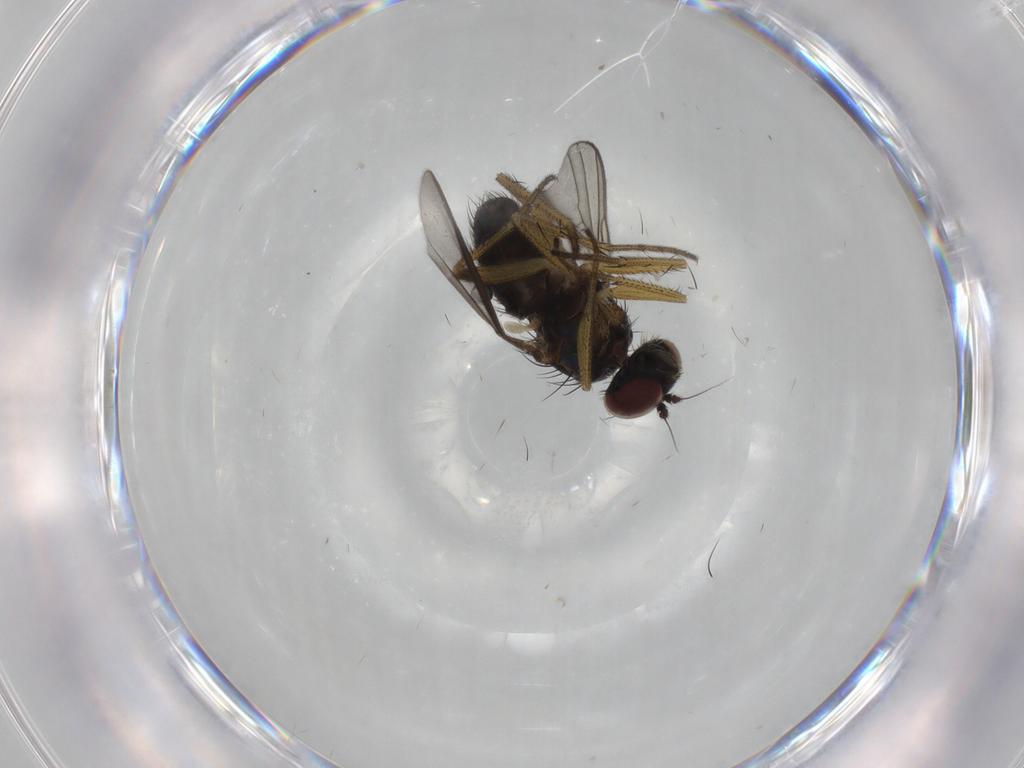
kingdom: Animalia
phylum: Arthropoda
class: Insecta
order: Diptera
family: Dolichopodidae
